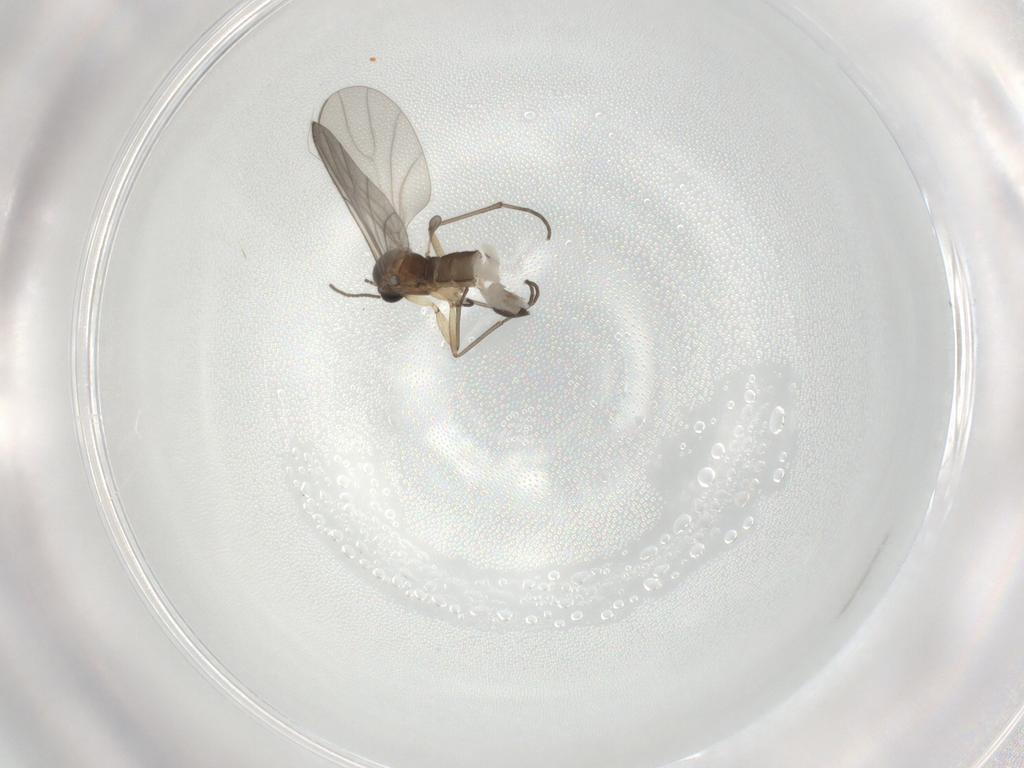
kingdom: Animalia
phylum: Arthropoda
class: Insecta
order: Diptera
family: Sciaridae
